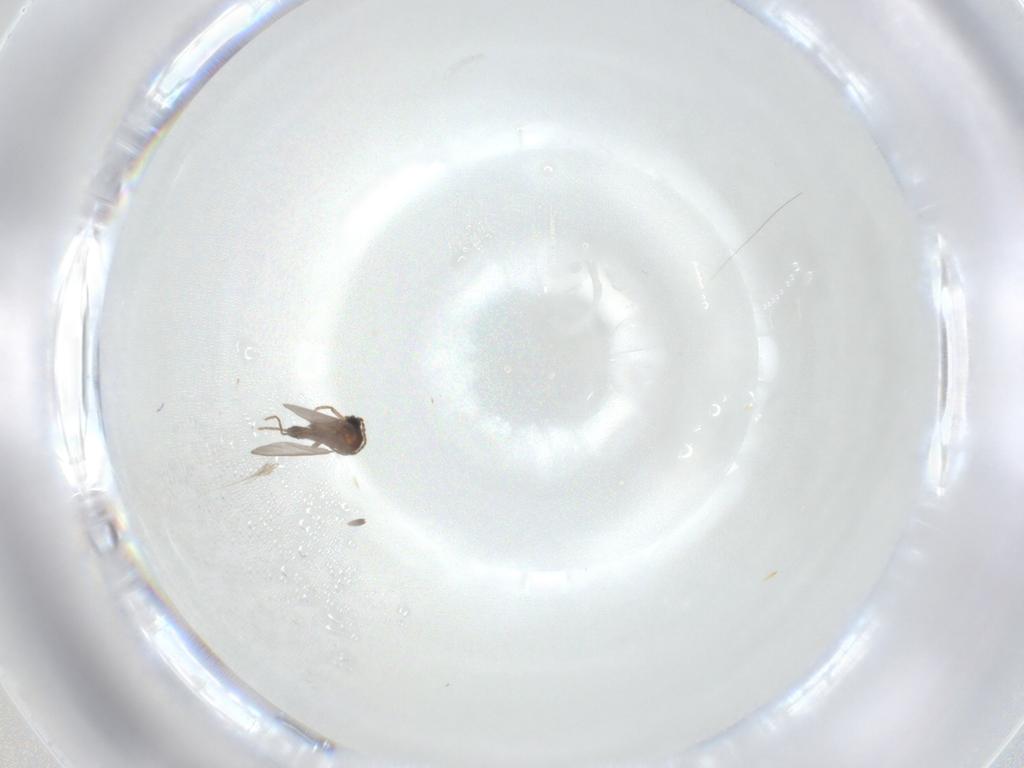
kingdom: Animalia
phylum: Arthropoda
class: Insecta
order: Diptera
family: Sciaridae
